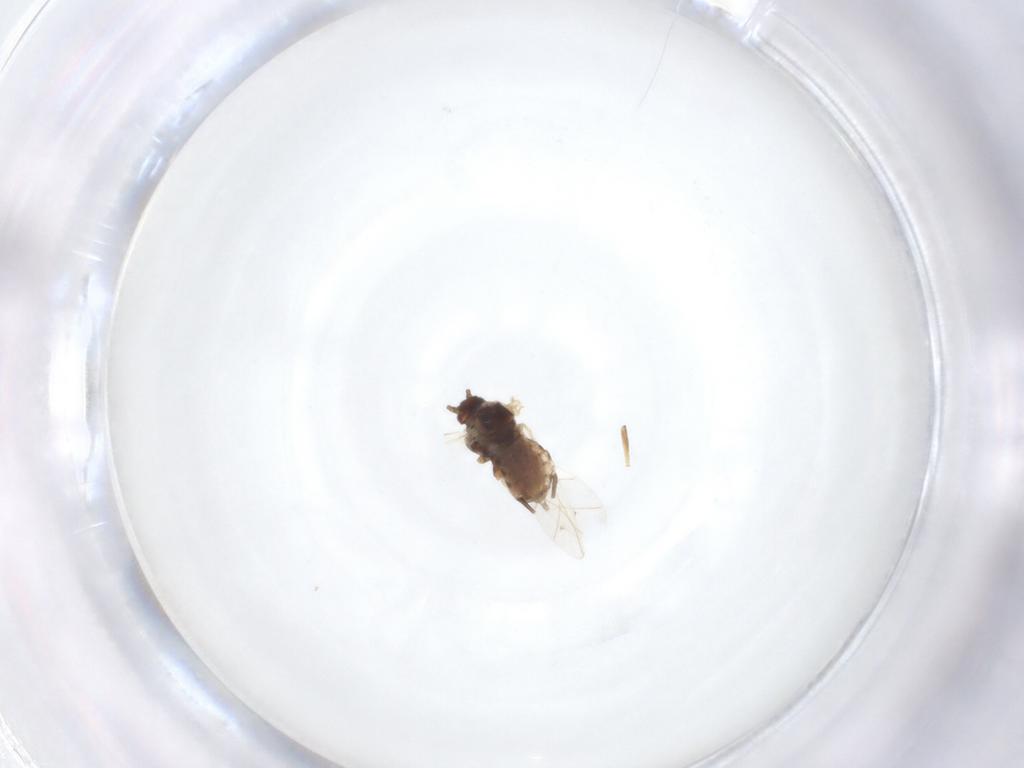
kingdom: Animalia
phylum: Arthropoda
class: Insecta
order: Hemiptera
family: Aphididae
